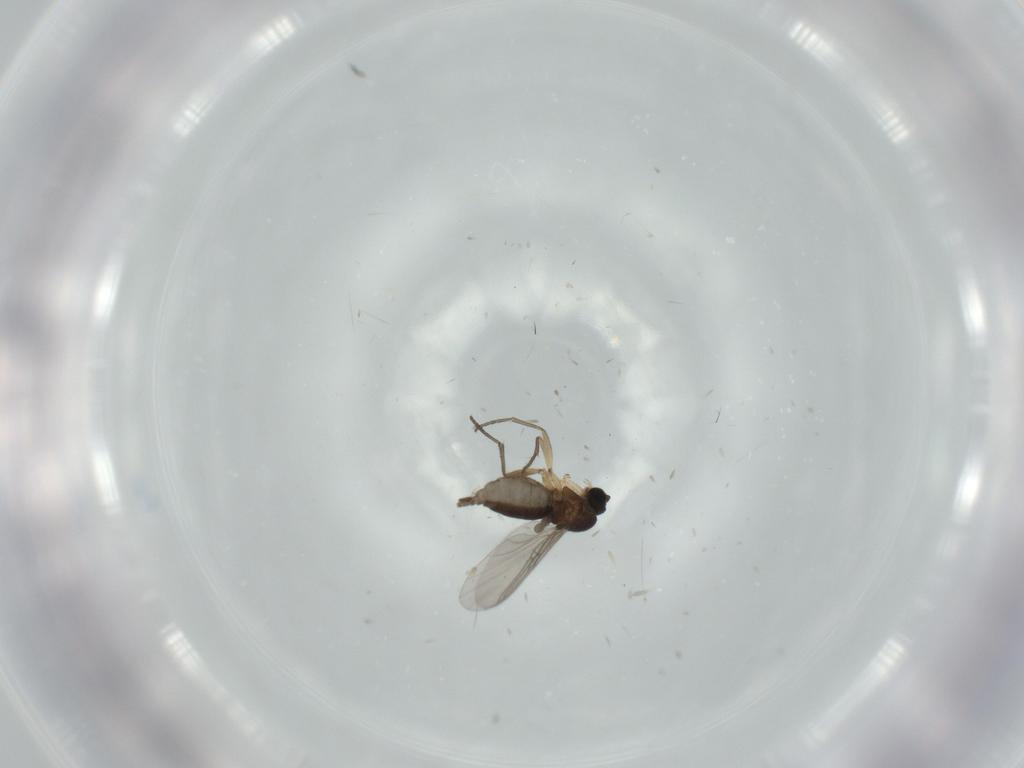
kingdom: Animalia
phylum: Arthropoda
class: Insecta
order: Diptera
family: Sciaridae
